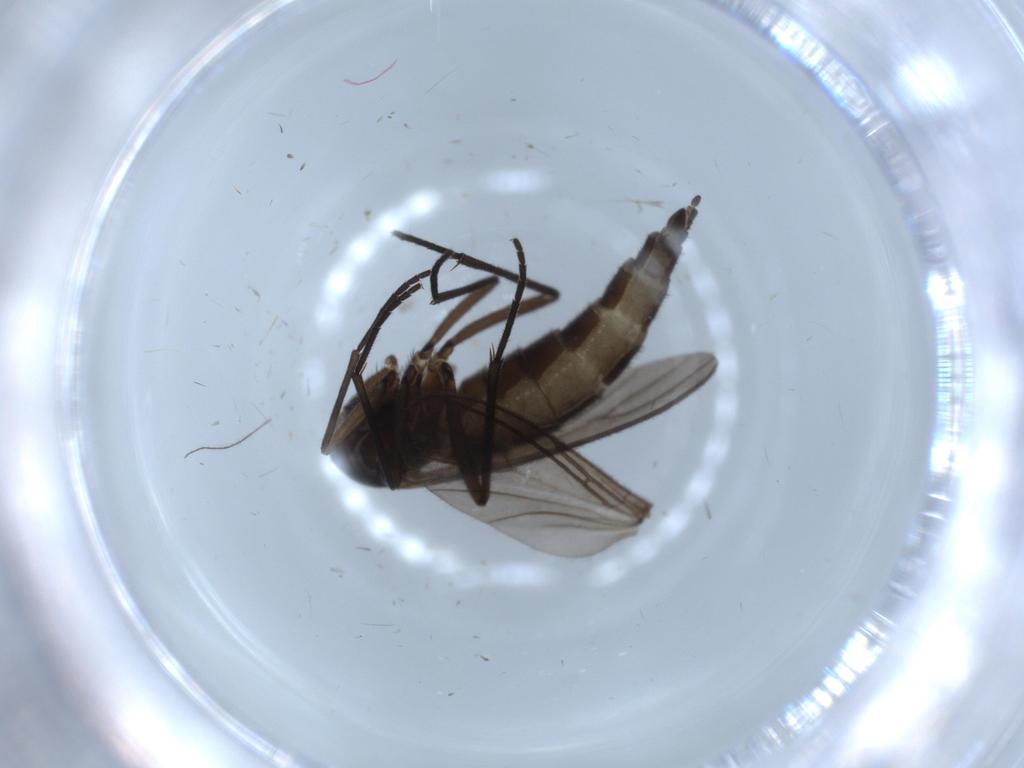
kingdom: Animalia
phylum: Arthropoda
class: Insecta
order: Diptera
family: Sciaridae
